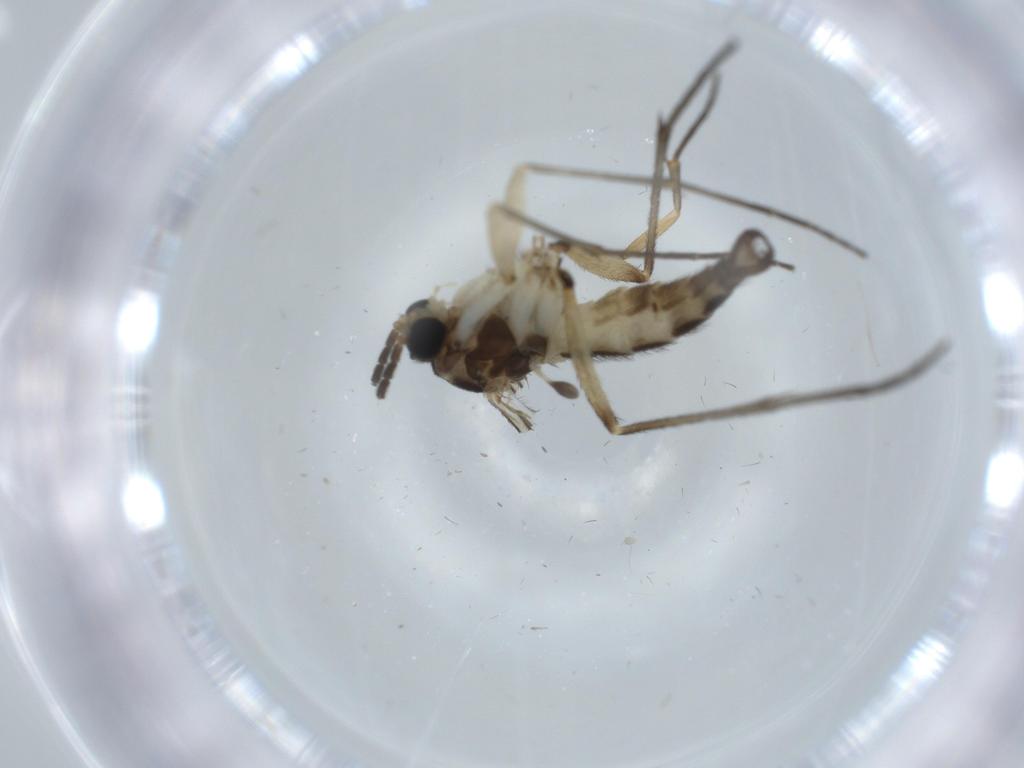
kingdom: Animalia
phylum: Arthropoda
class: Insecta
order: Diptera
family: Sciaridae
